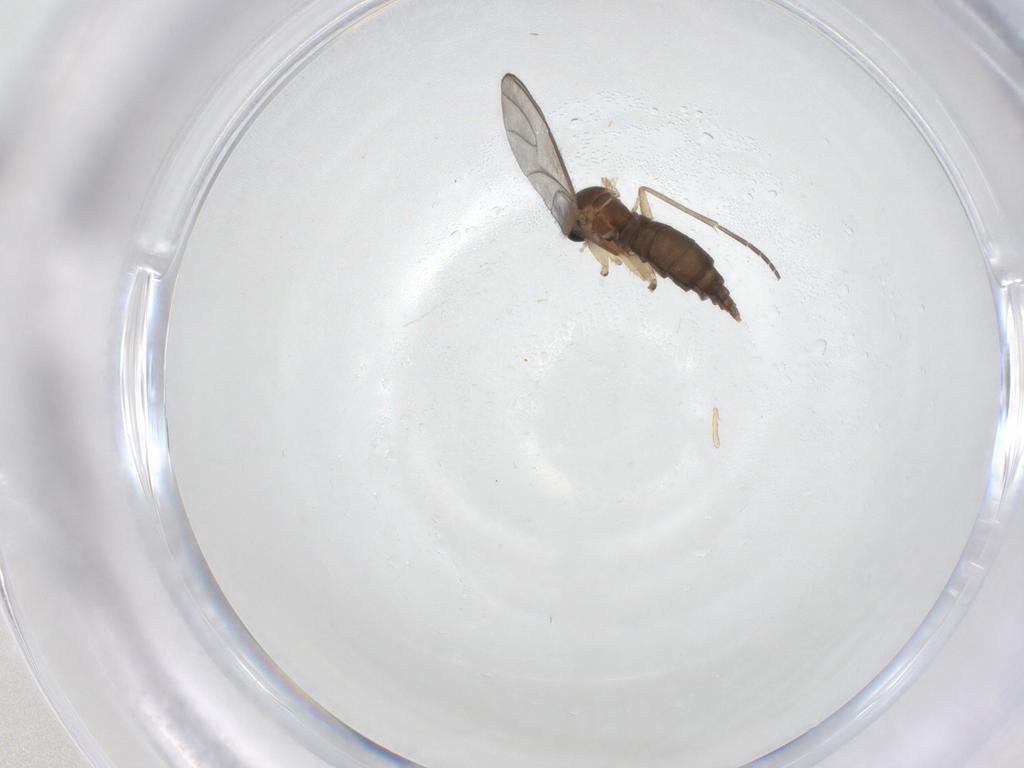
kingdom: Animalia
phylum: Arthropoda
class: Insecta
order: Diptera
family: Sciaridae
